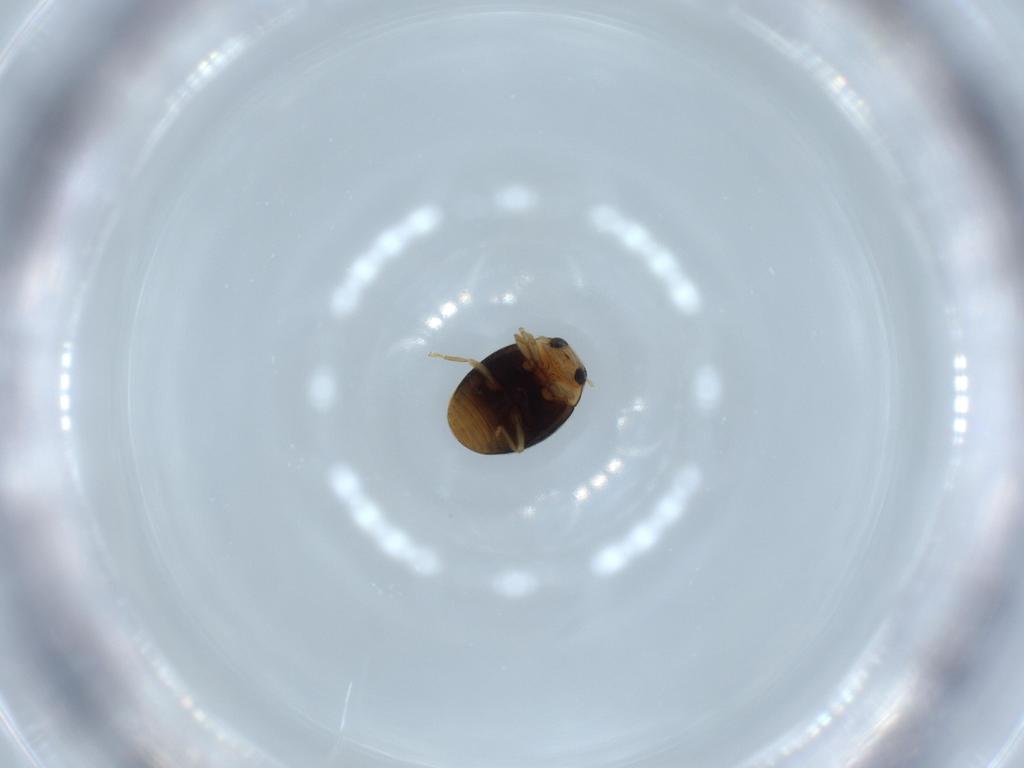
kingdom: Animalia
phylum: Arthropoda
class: Insecta
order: Coleoptera
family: Coccinellidae
